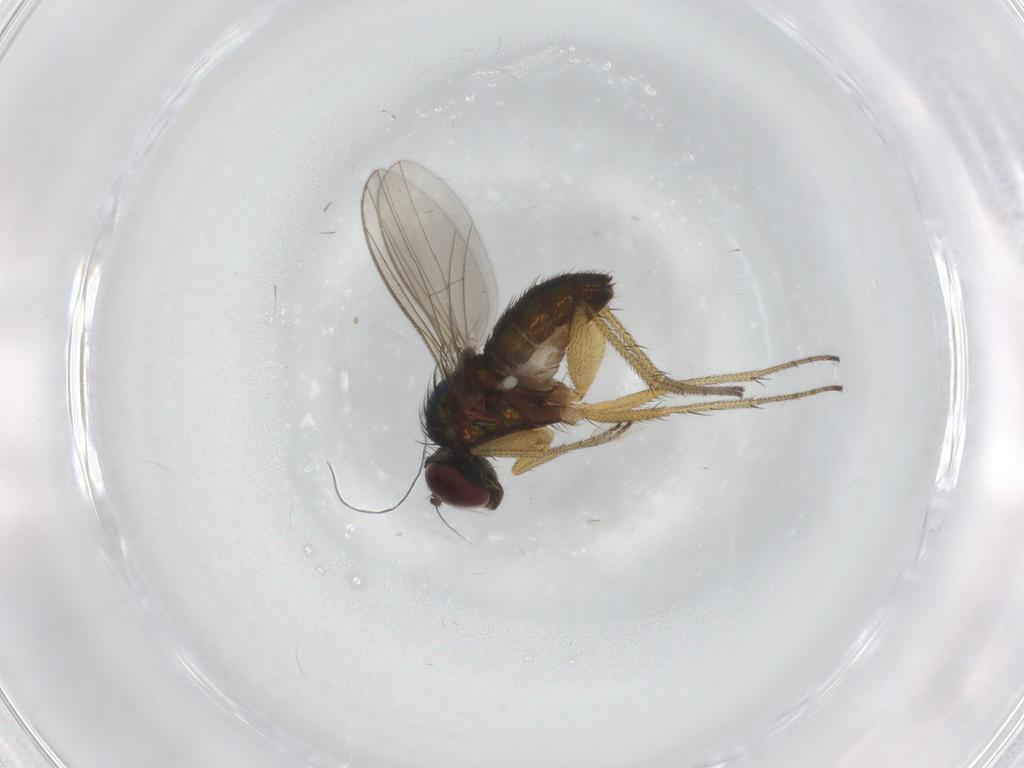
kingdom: Animalia
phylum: Arthropoda
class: Insecta
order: Diptera
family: Dolichopodidae
